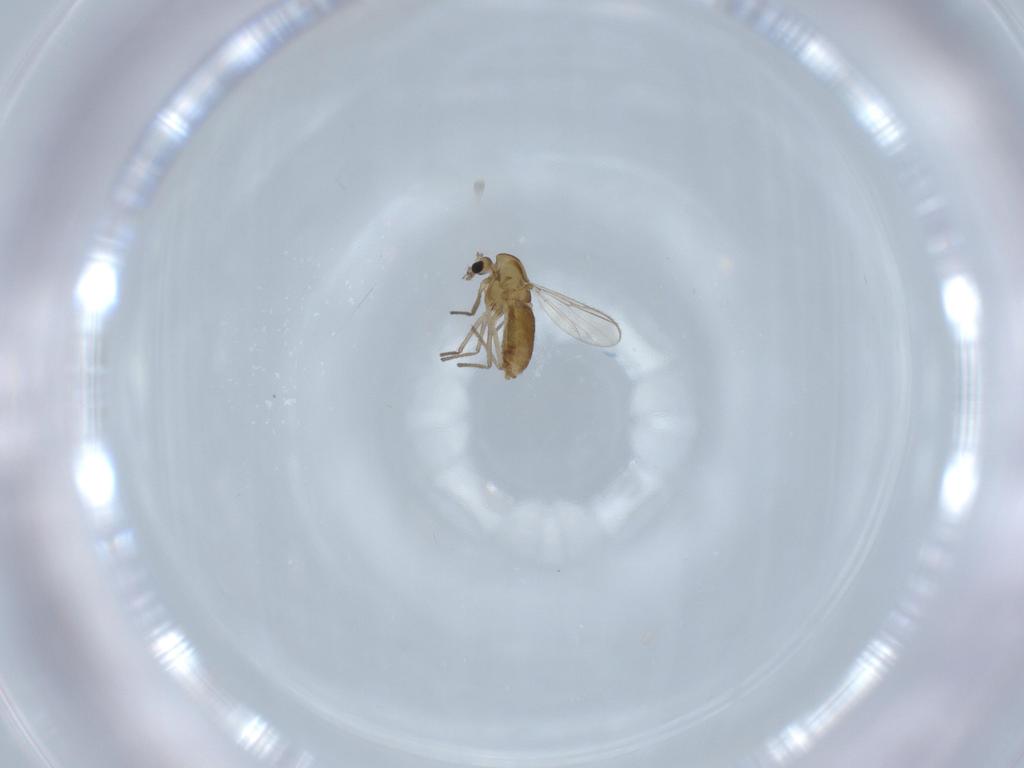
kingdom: Animalia
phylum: Arthropoda
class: Insecta
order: Diptera
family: Chironomidae
